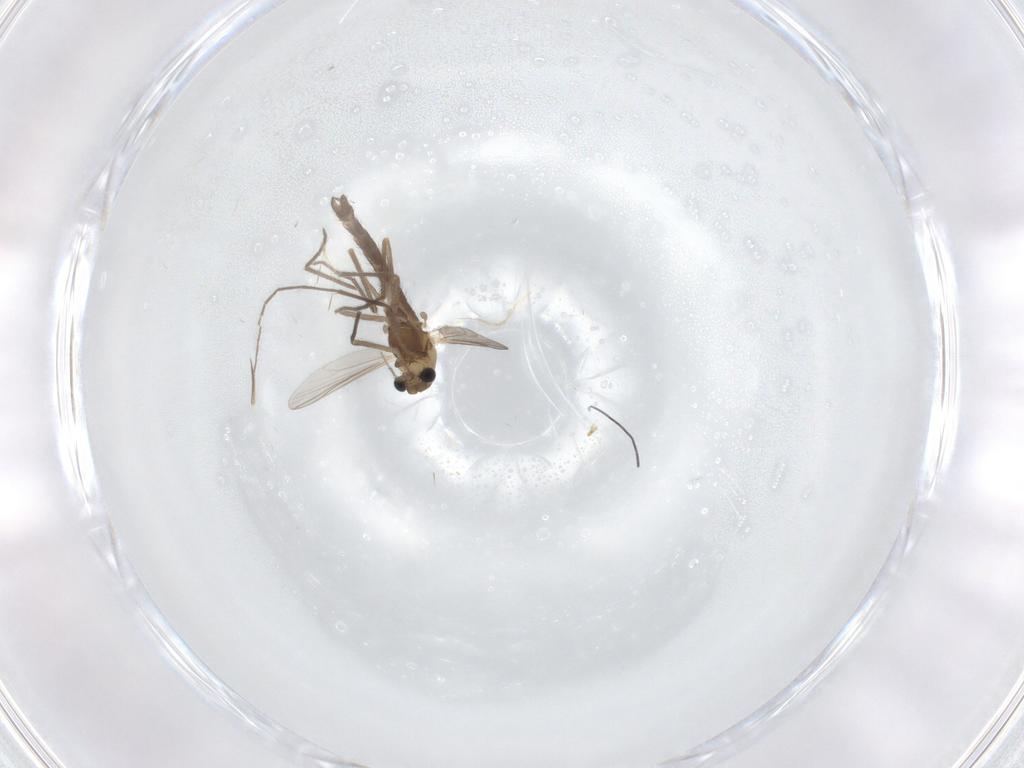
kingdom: Animalia
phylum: Arthropoda
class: Insecta
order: Diptera
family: Chironomidae
